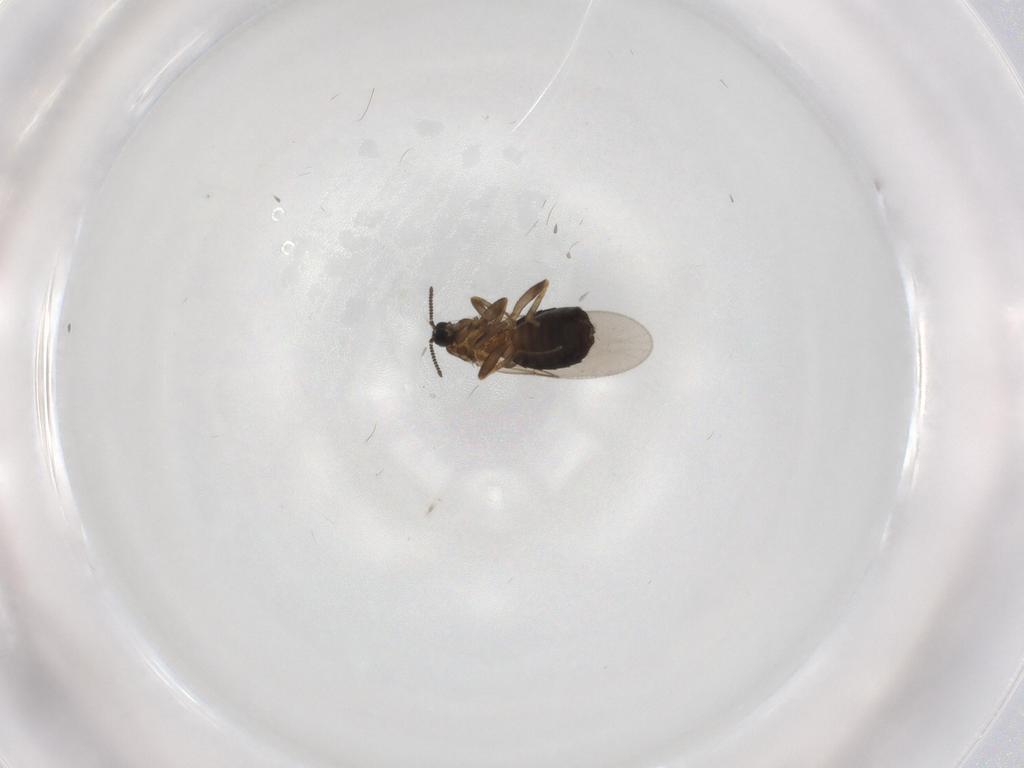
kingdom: Animalia
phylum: Arthropoda
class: Insecta
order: Diptera
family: Scatopsidae
